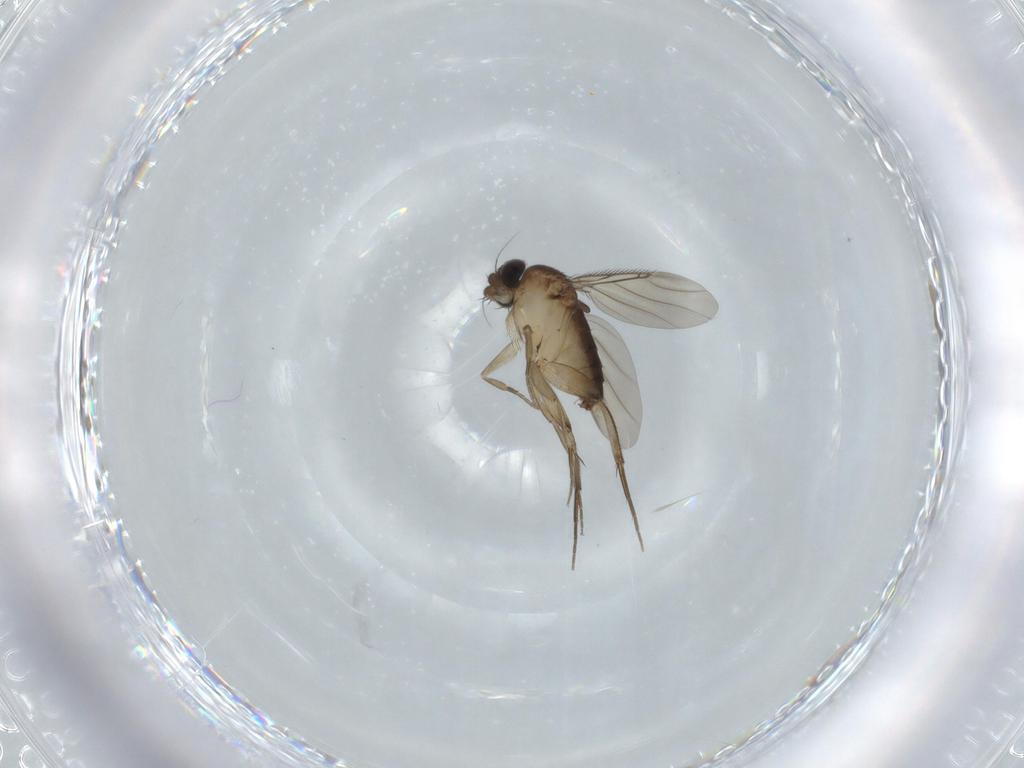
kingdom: Animalia
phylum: Arthropoda
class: Insecta
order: Diptera
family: Phoridae
